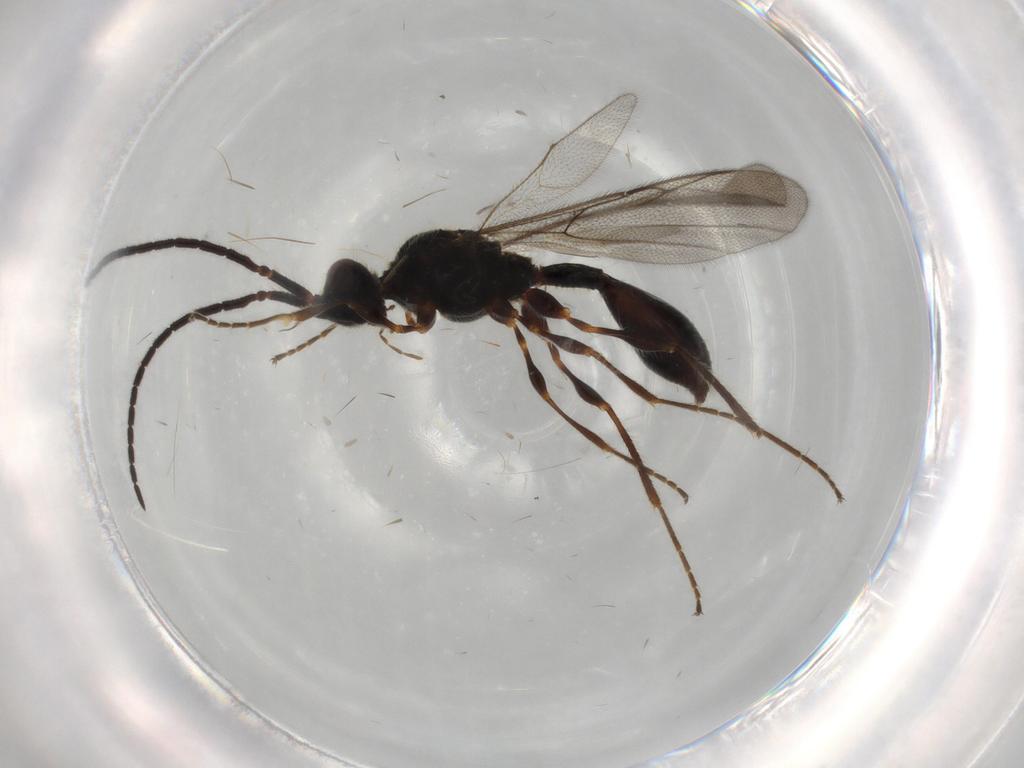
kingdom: Animalia
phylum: Arthropoda
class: Insecta
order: Hymenoptera
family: Diapriidae
